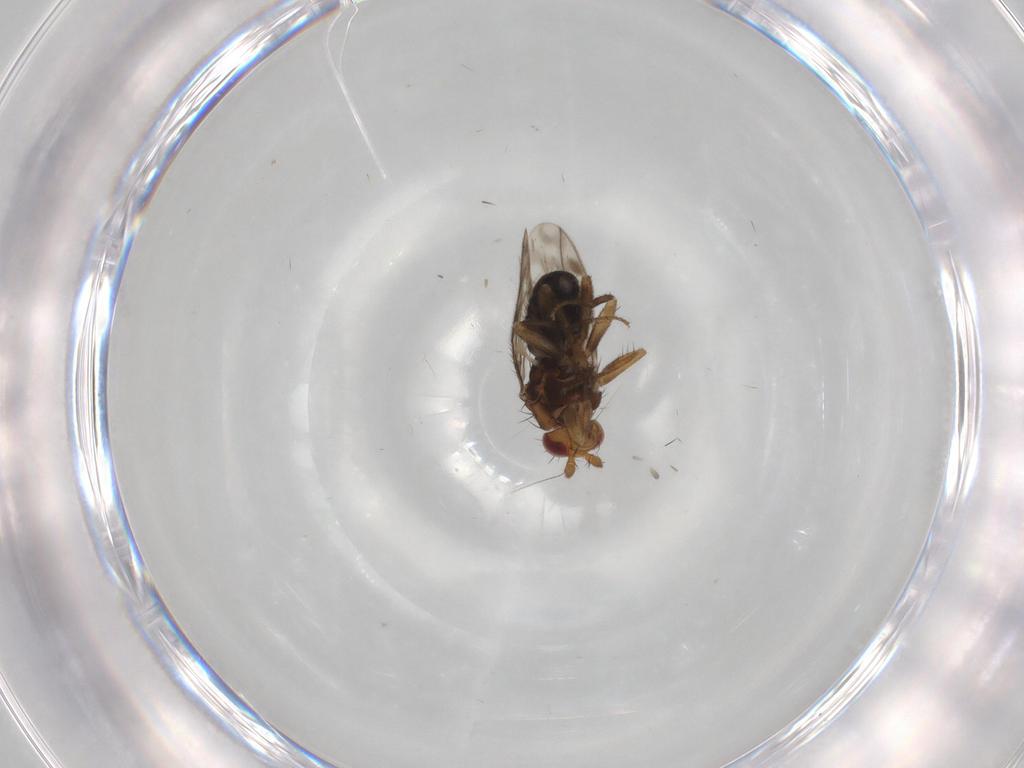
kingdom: Animalia
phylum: Arthropoda
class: Insecta
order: Diptera
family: Sphaeroceridae
